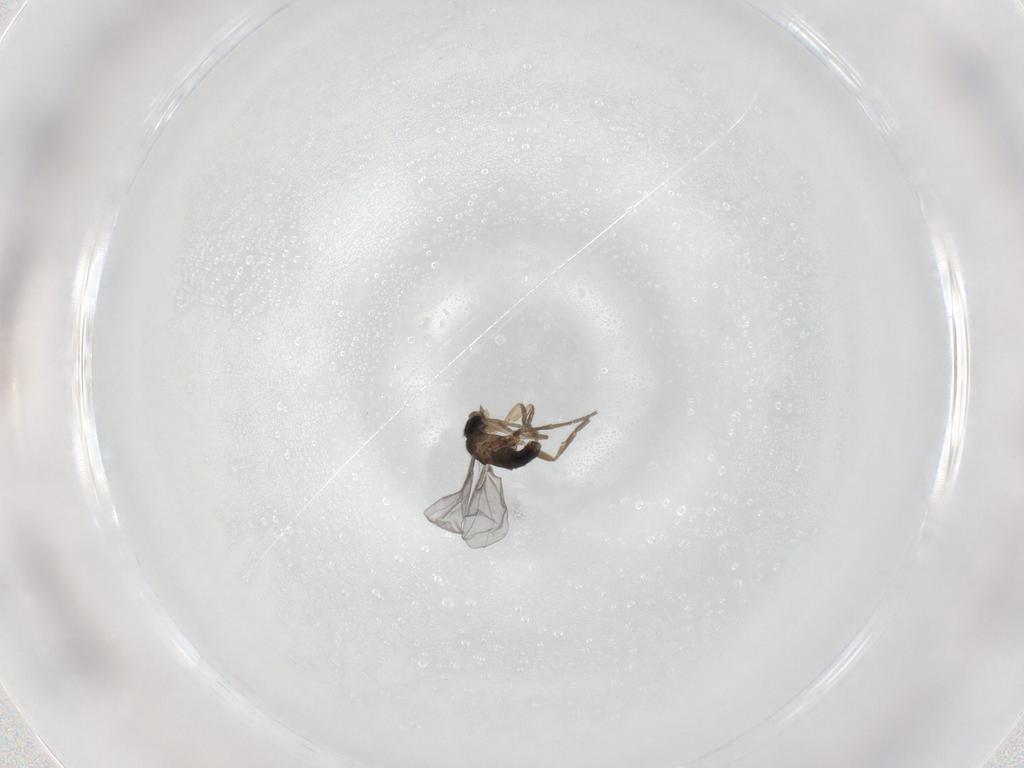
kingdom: Animalia
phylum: Arthropoda
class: Insecta
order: Diptera
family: Phoridae
